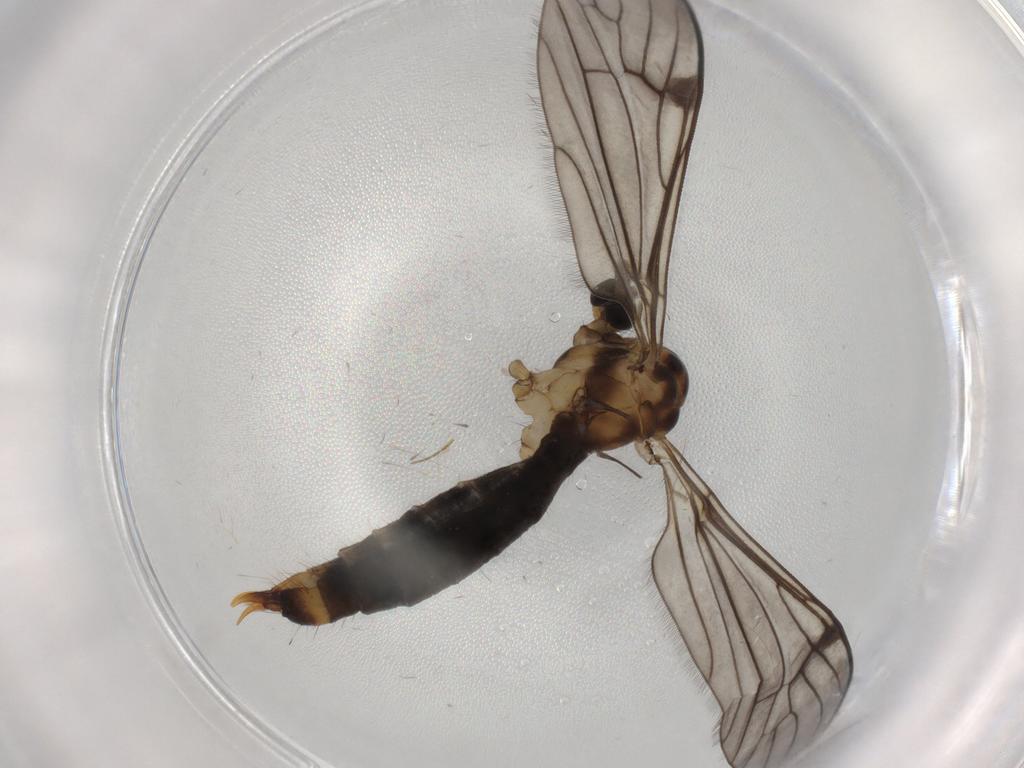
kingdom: Animalia
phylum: Arthropoda
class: Insecta
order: Diptera
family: Limoniidae
